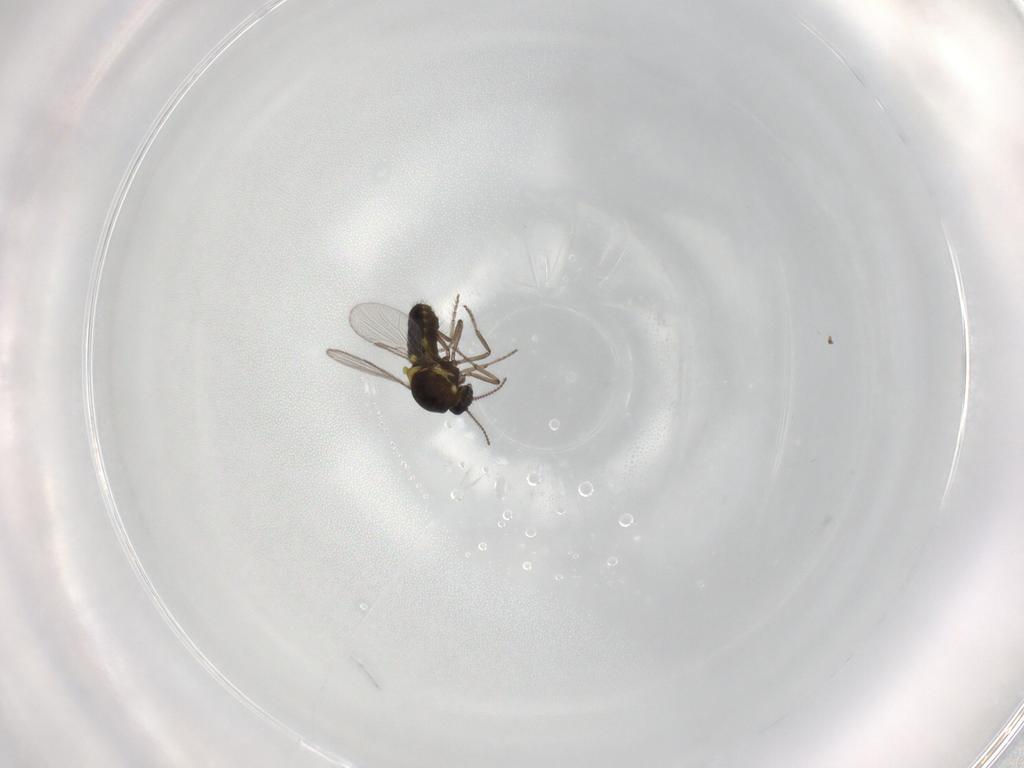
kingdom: Animalia
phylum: Arthropoda
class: Insecta
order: Diptera
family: Ceratopogonidae
